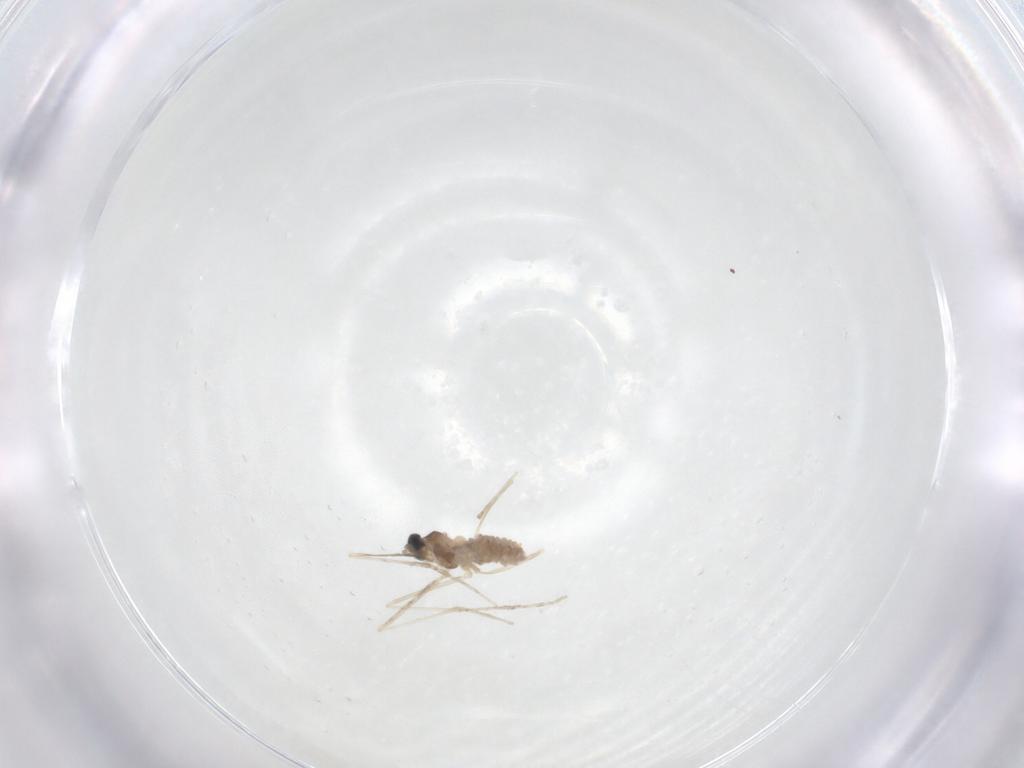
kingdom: Animalia
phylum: Arthropoda
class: Insecta
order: Diptera
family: Cecidomyiidae
